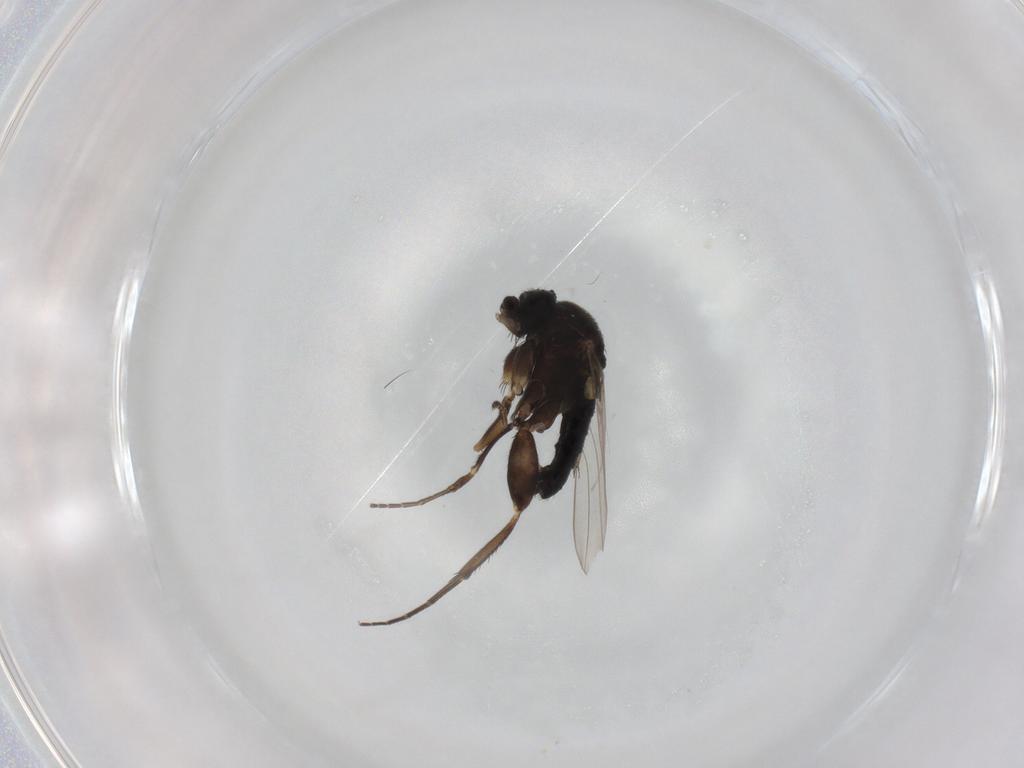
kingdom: Animalia
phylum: Arthropoda
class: Insecta
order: Diptera
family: Phoridae
